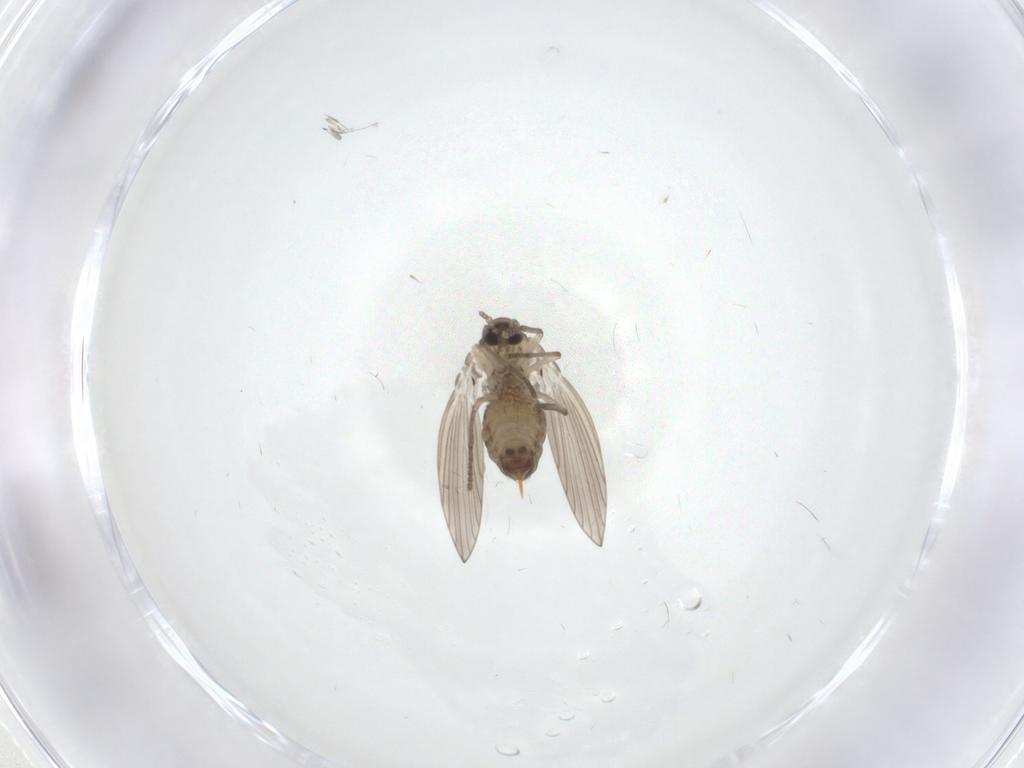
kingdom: Animalia
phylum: Arthropoda
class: Insecta
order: Diptera
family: Psychodidae
